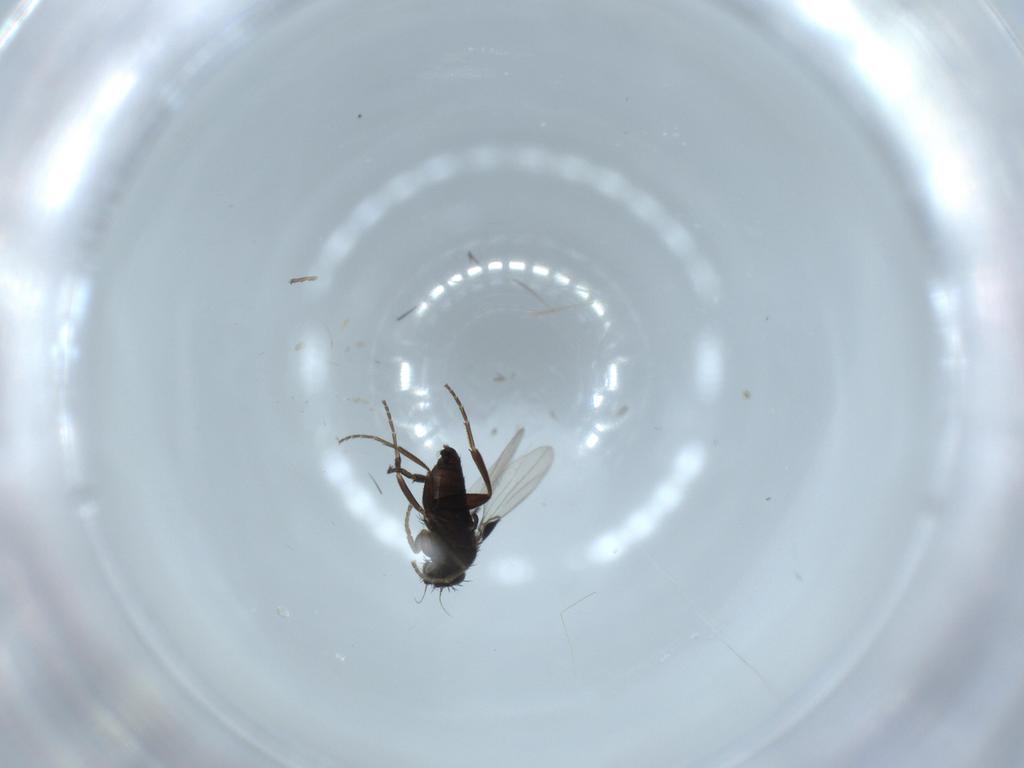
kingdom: Animalia
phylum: Arthropoda
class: Insecta
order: Diptera
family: Phoridae
